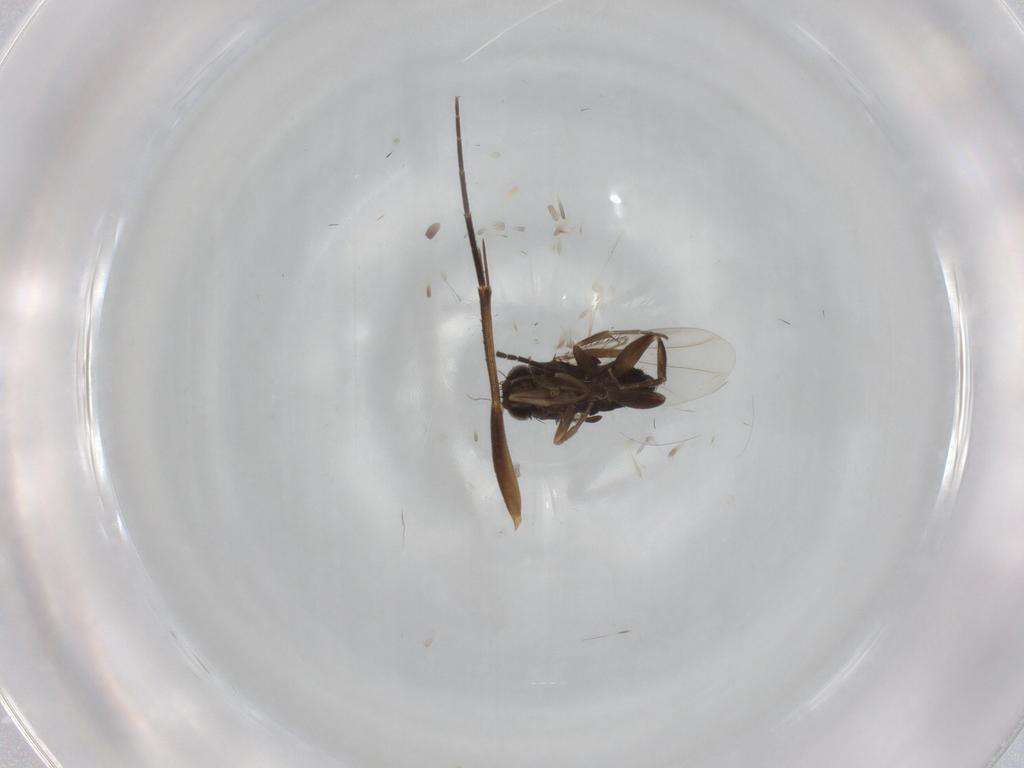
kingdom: Animalia
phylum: Arthropoda
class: Insecta
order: Diptera
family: Phoridae
